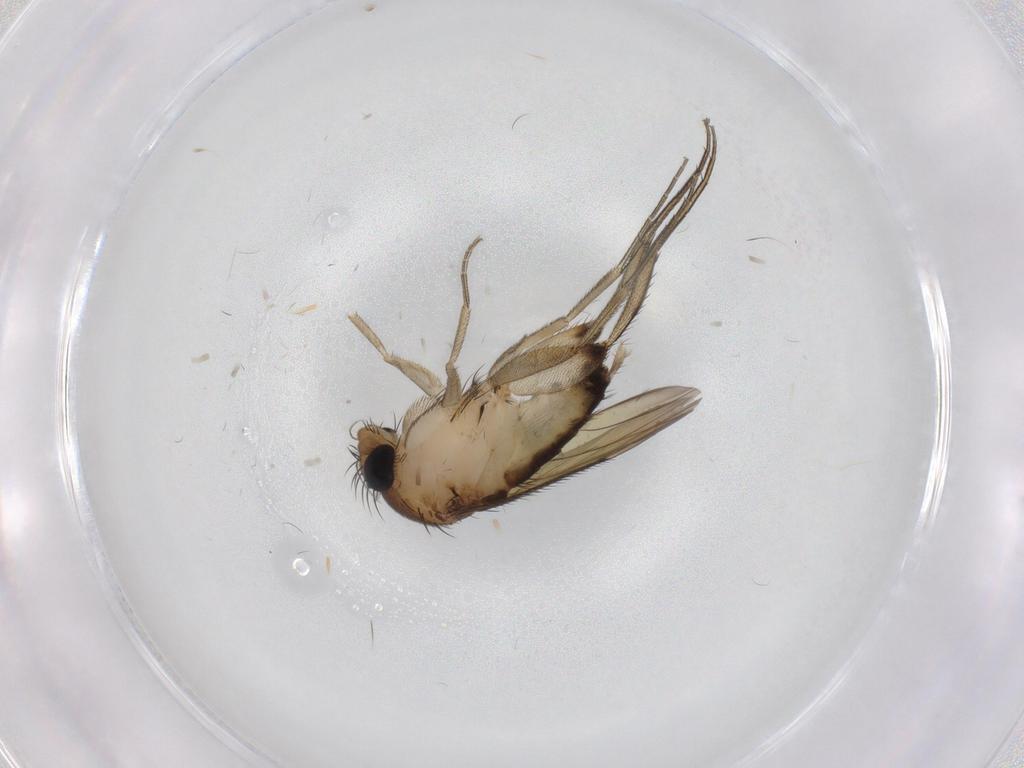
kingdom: Animalia
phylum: Arthropoda
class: Insecta
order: Diptera
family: Phoridae
